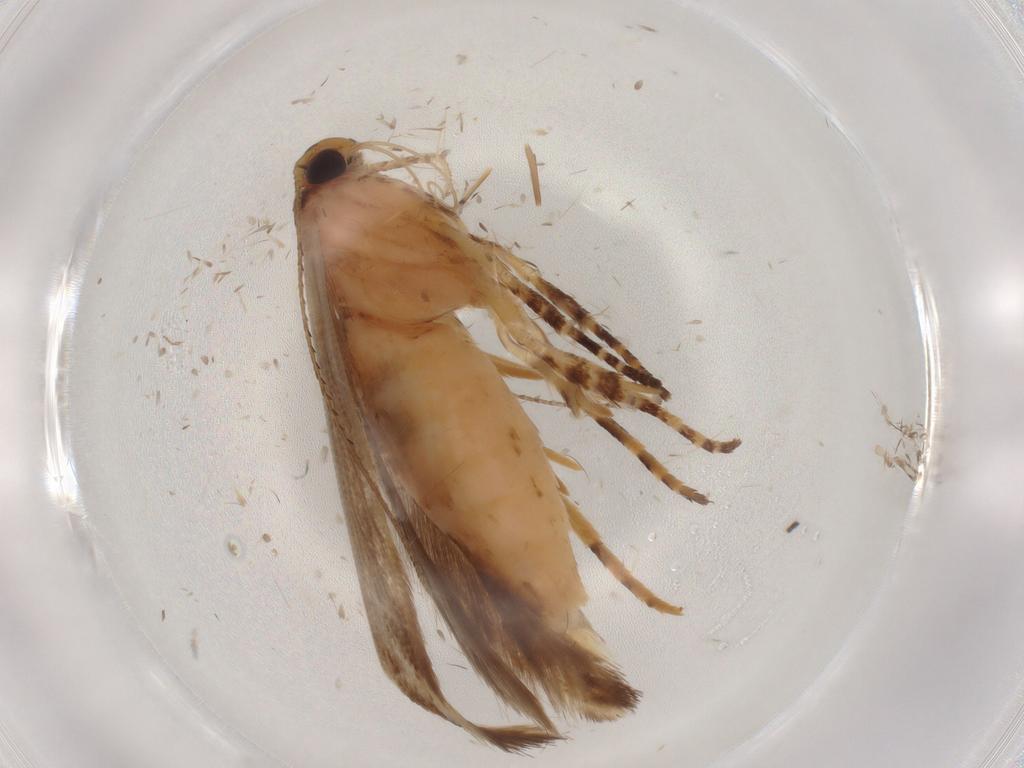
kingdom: Animalia
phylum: Arthropoda
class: Insecta
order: Lepidoptera
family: Gelechiidae
